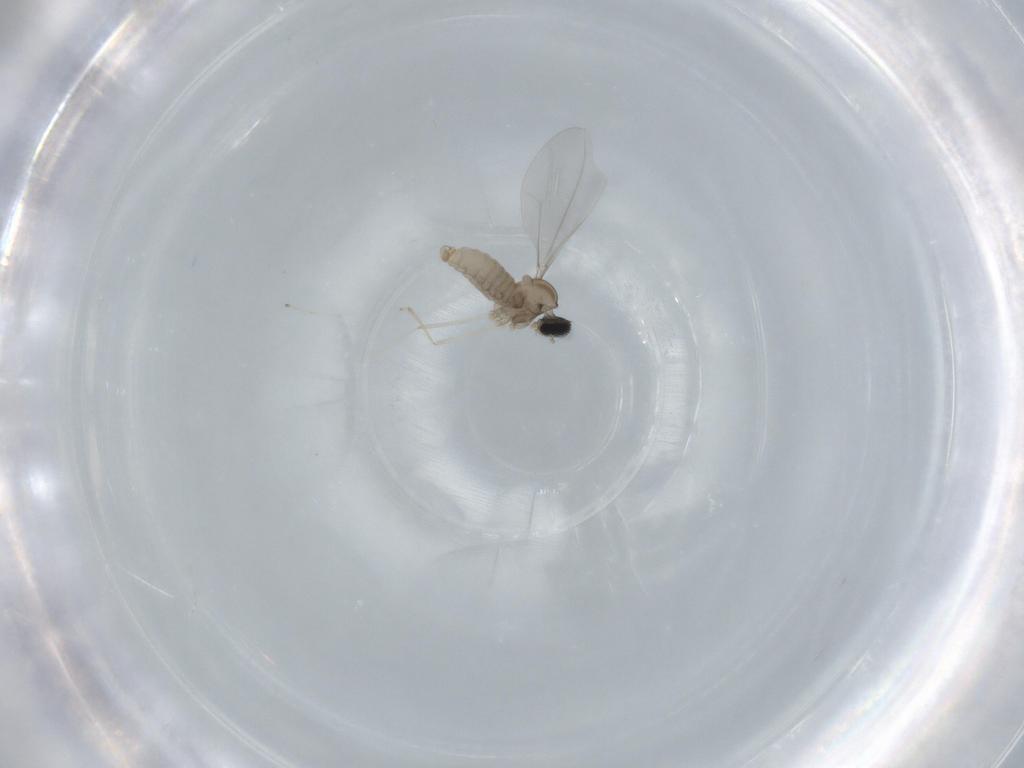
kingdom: Animalia
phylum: Arthropoda
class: Insecta
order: Diptera
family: Cecidomyiidae
